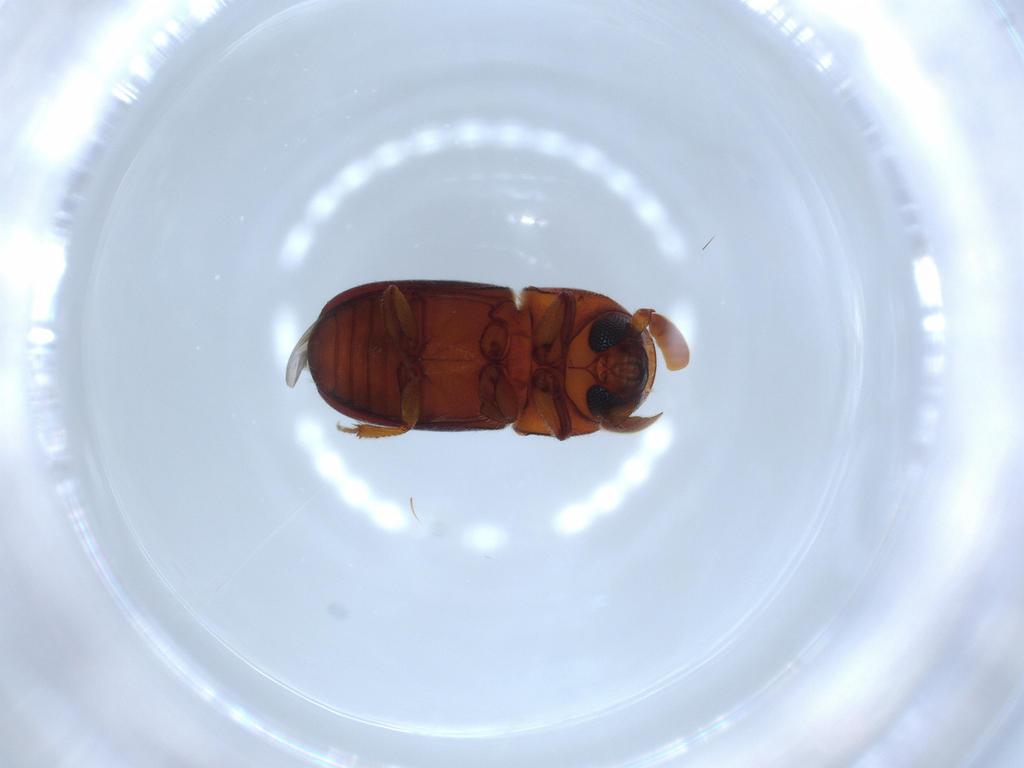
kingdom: Animalia
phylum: Arthropoda
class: Insecta
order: Coleoptera
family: Curculionidae
